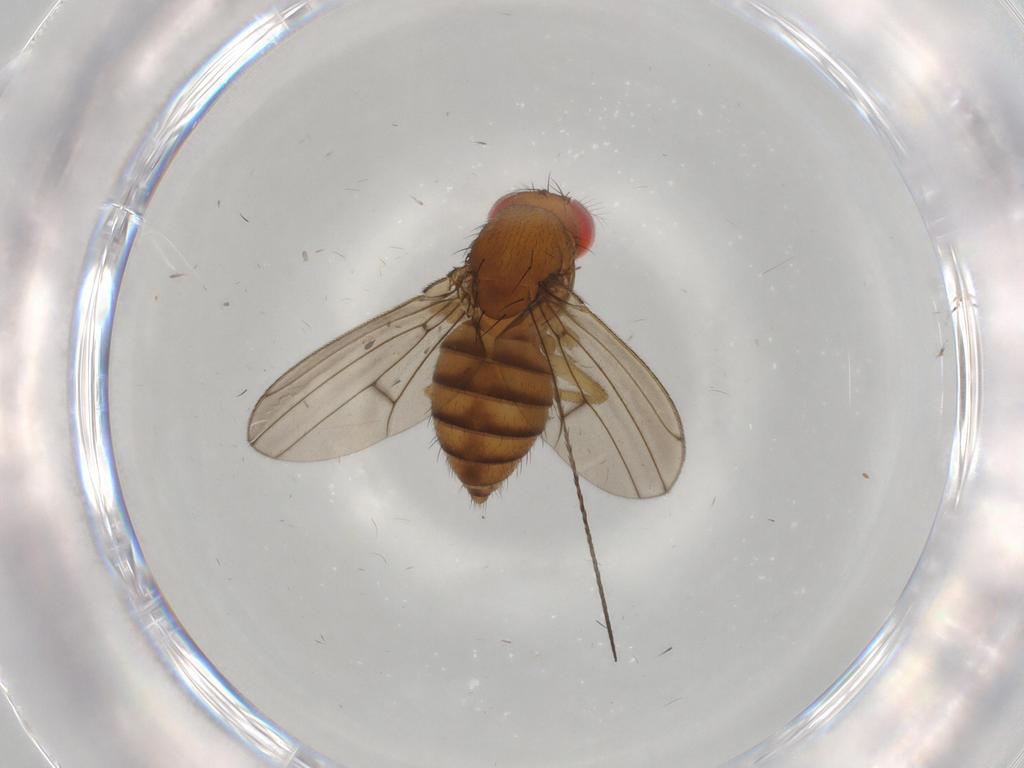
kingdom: Animalia
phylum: Arthropoda
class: Insecta
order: Diptera
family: Drosophilidae
